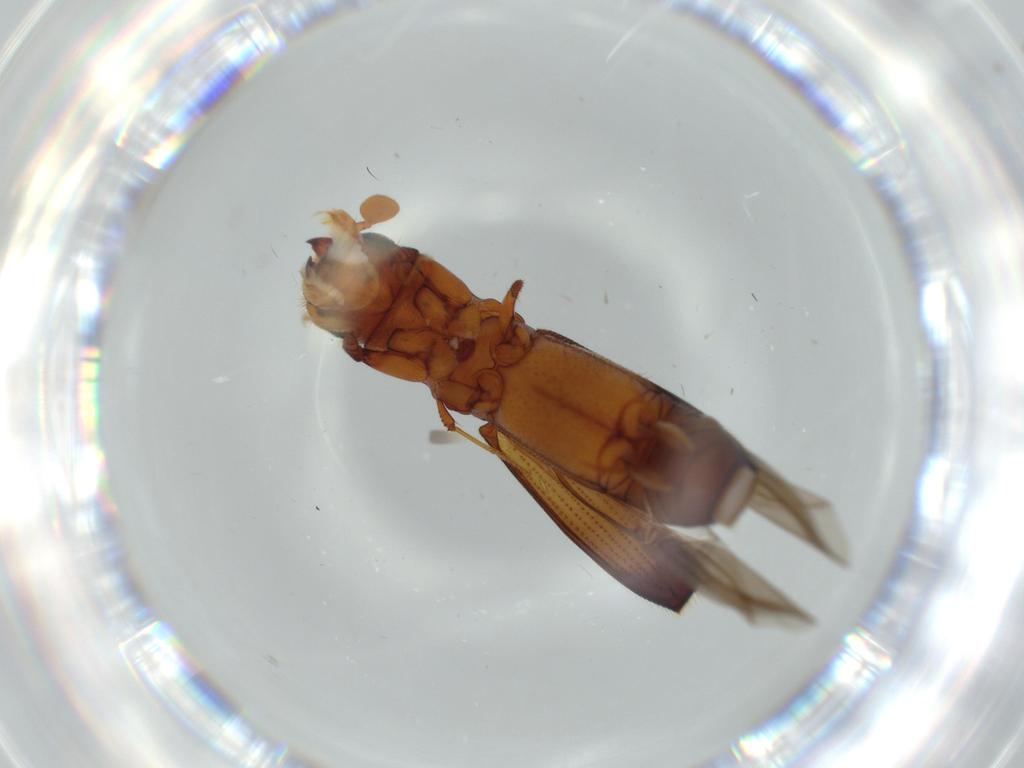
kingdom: Animalia
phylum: Arthropoda
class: Insecta
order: Coleoptera
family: Curculionidae
